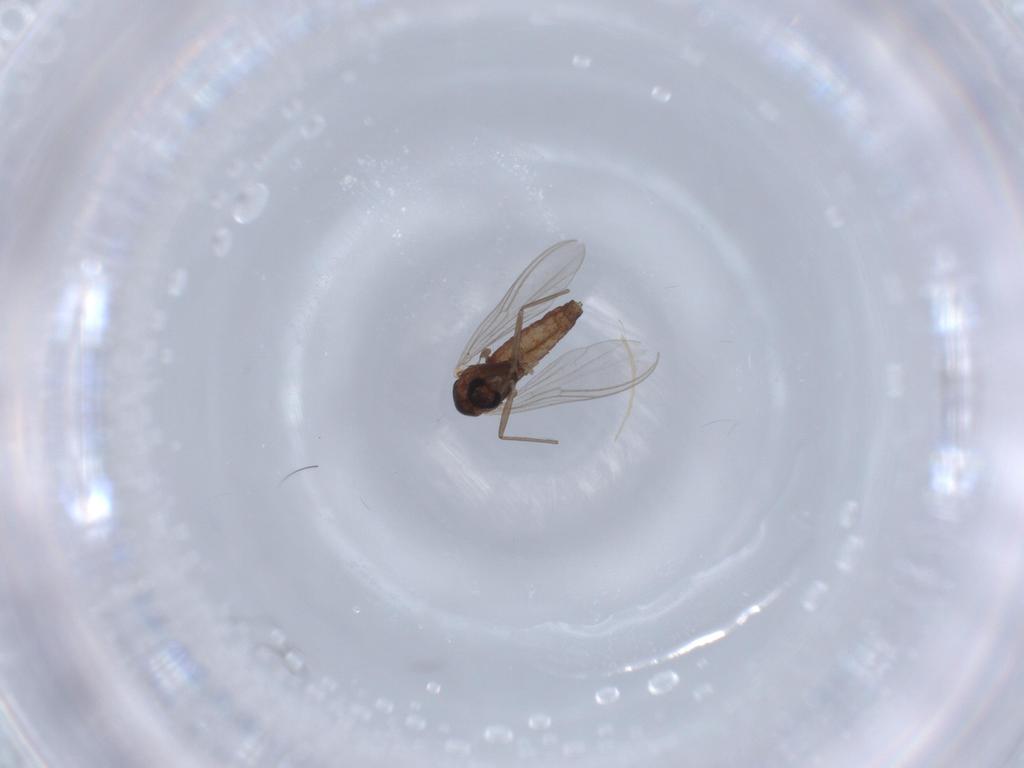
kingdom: Animalia
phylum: Arthropoda
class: Insecta
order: Diptera
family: Chironomidae
